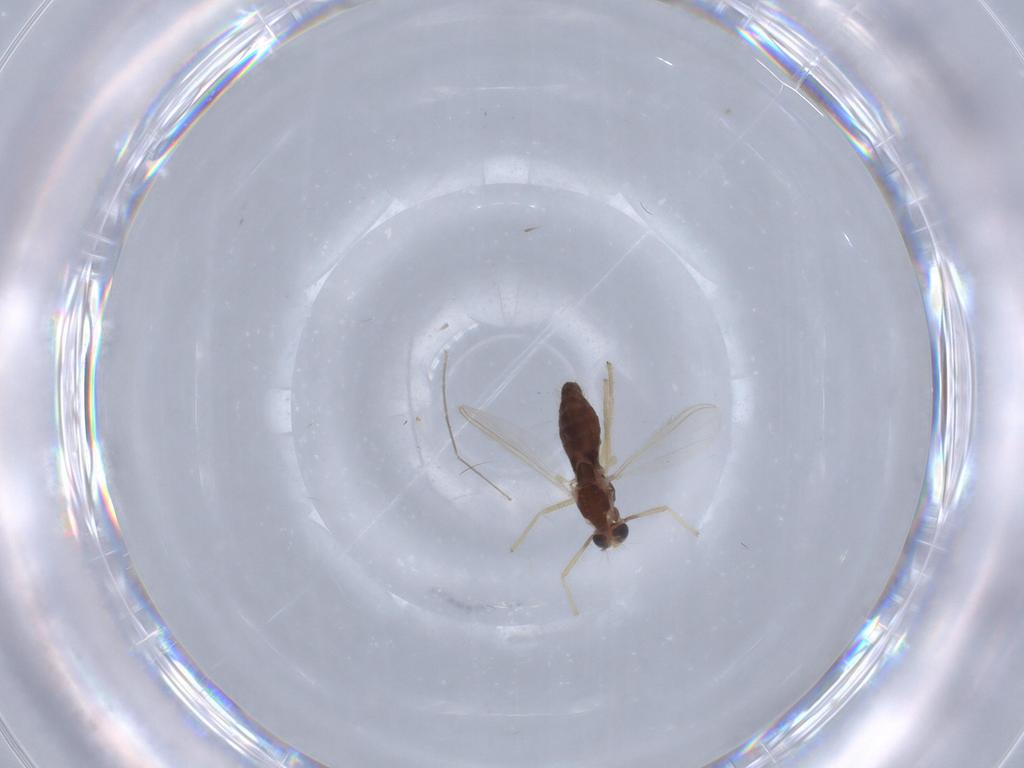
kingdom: Animalia
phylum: Arthropoda
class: Insecta
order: Diptera
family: Chironomidae
